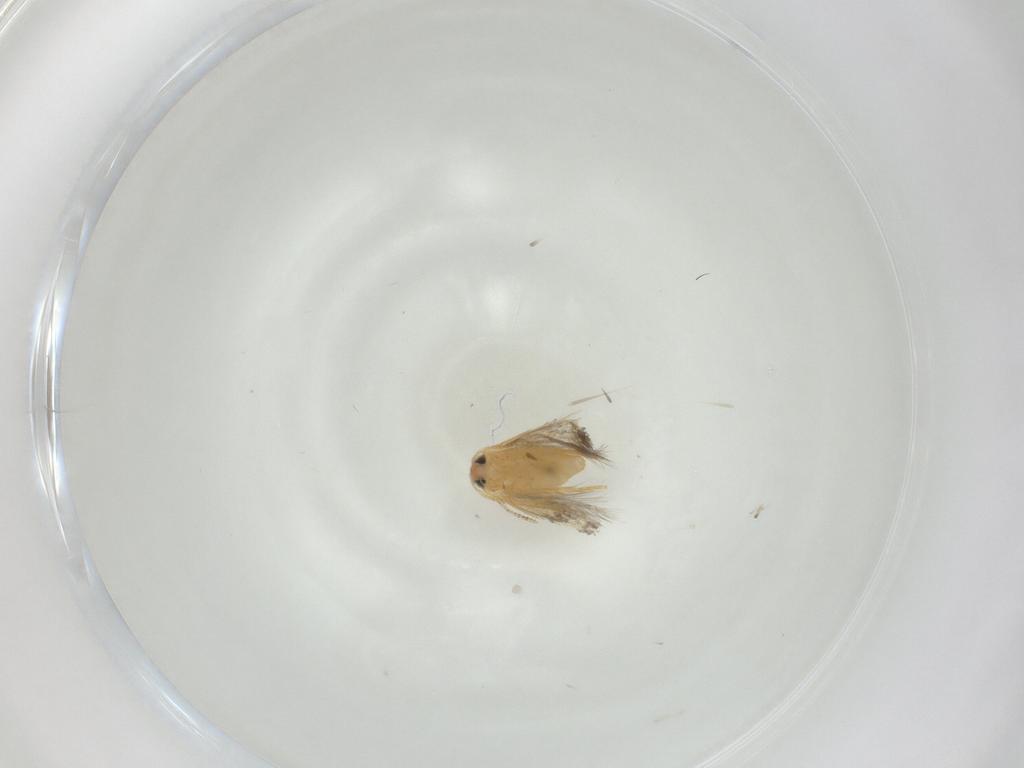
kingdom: Animalia
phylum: Arthropoda
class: Insecta
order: Lepidoptera
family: Nepticulidae
